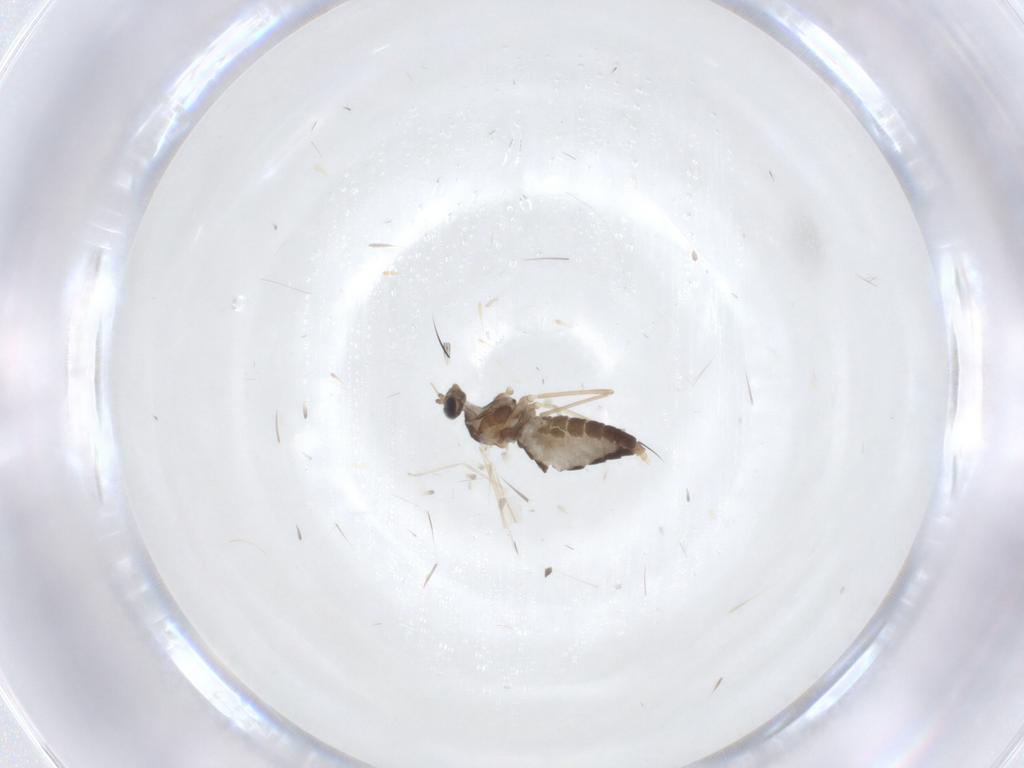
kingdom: Animalia
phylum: Arthropoda
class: Insecta
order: Diptera
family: Cecidomyiidae
